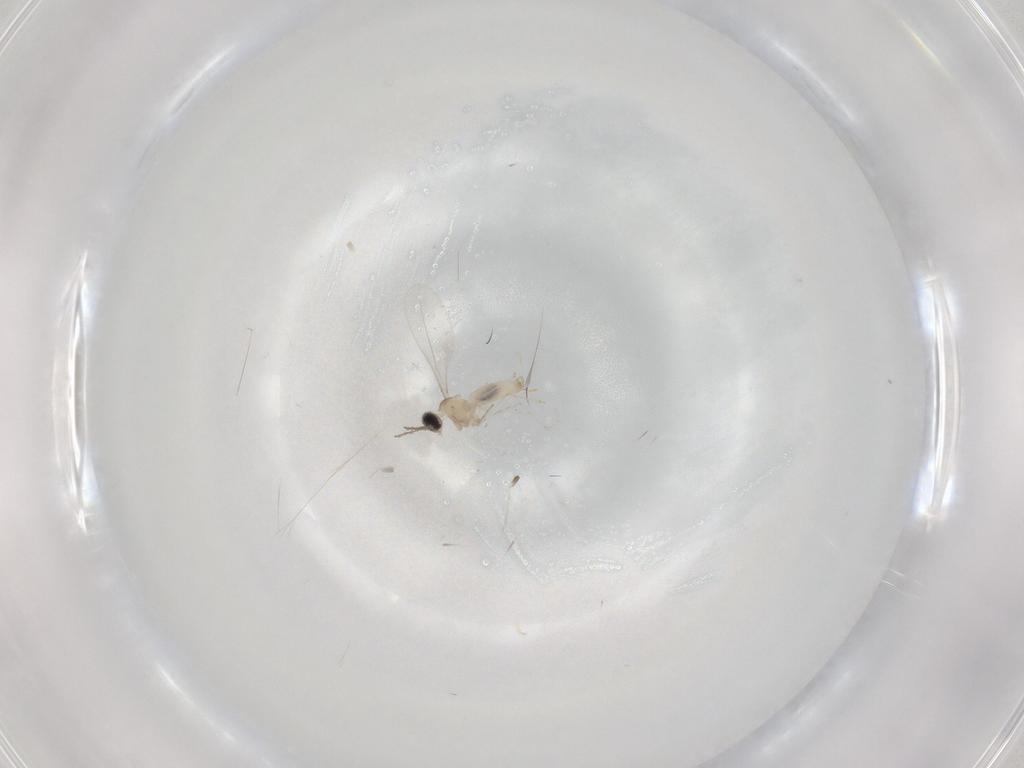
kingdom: Animalia
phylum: Arthropoda
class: Insecta
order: Diptera
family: Cecidomyiidae
